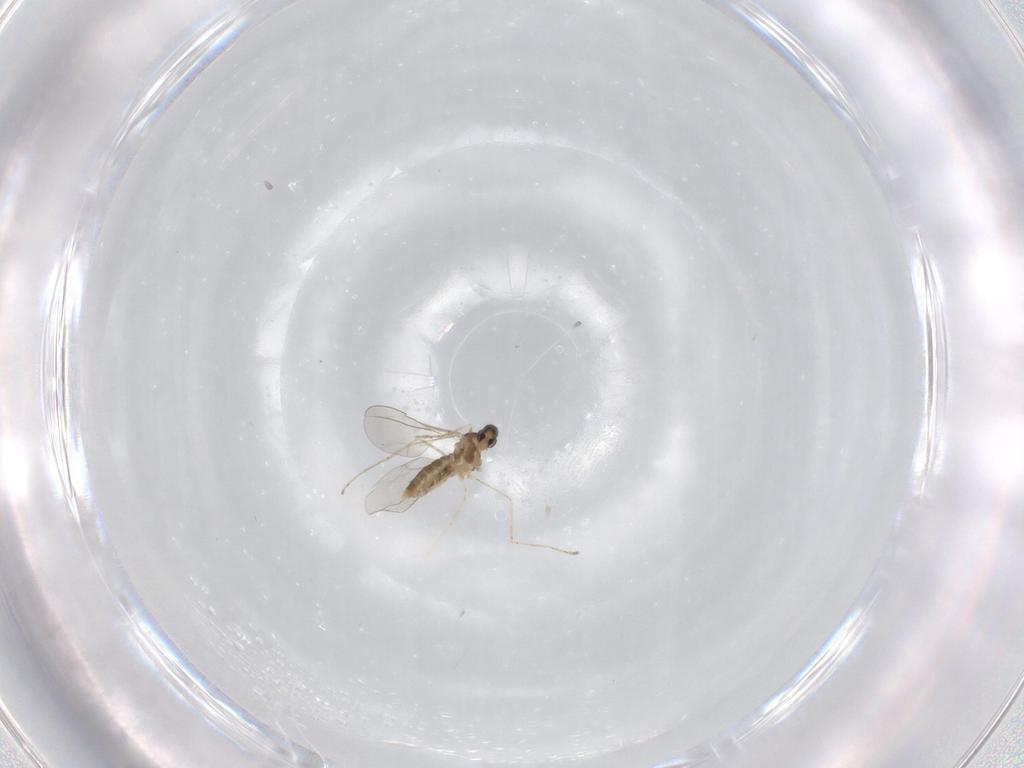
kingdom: Animalia
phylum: Arthropoda
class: Insecta
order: Diptera
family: Cecidomyiidae
